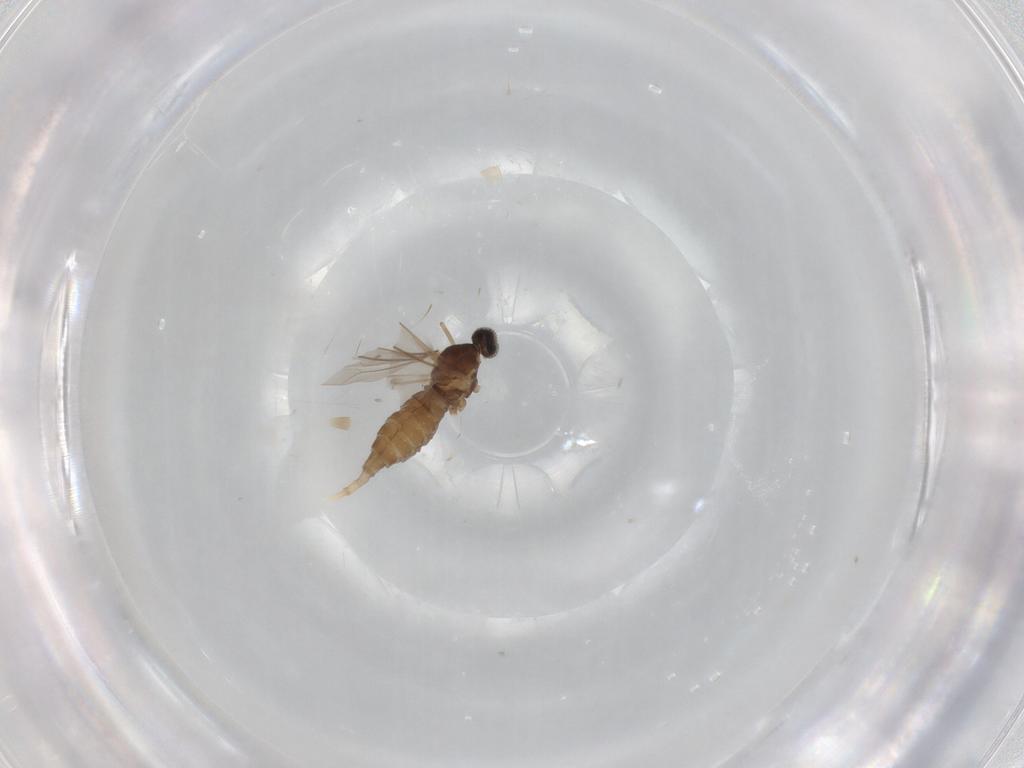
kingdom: Animalia
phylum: Arthropoda
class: Insecta
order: Diptera
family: Cecidomyiidae
